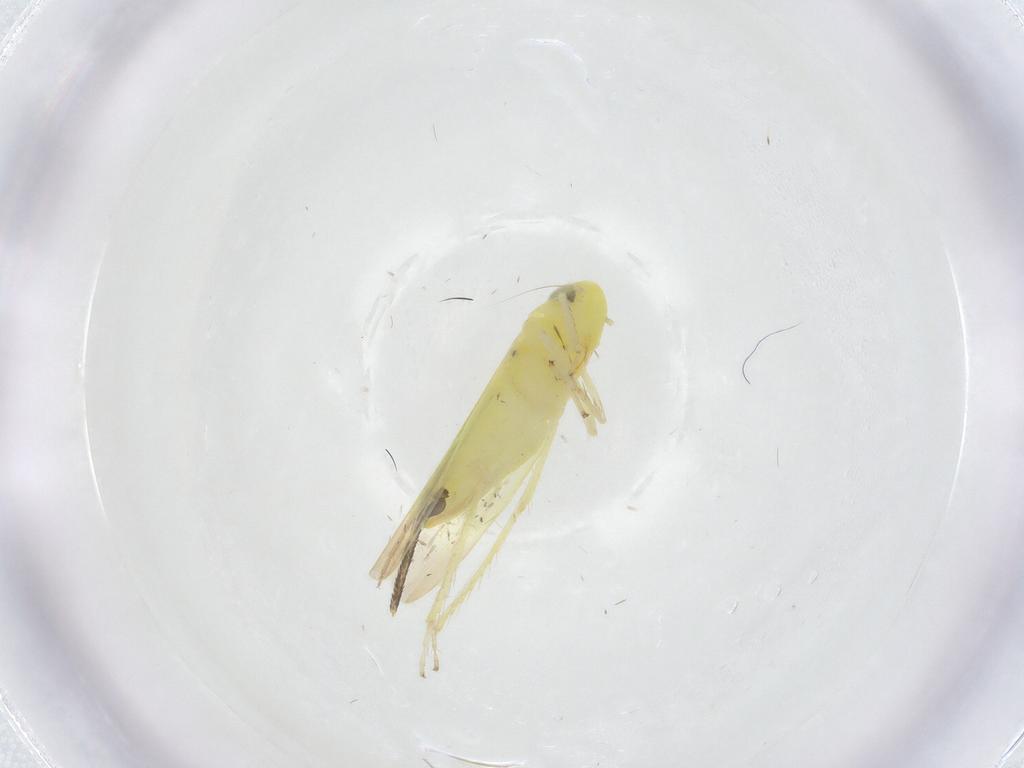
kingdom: Animalia
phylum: Arthropoda
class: Insecta
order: Hemiptera
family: Cicadellidae
